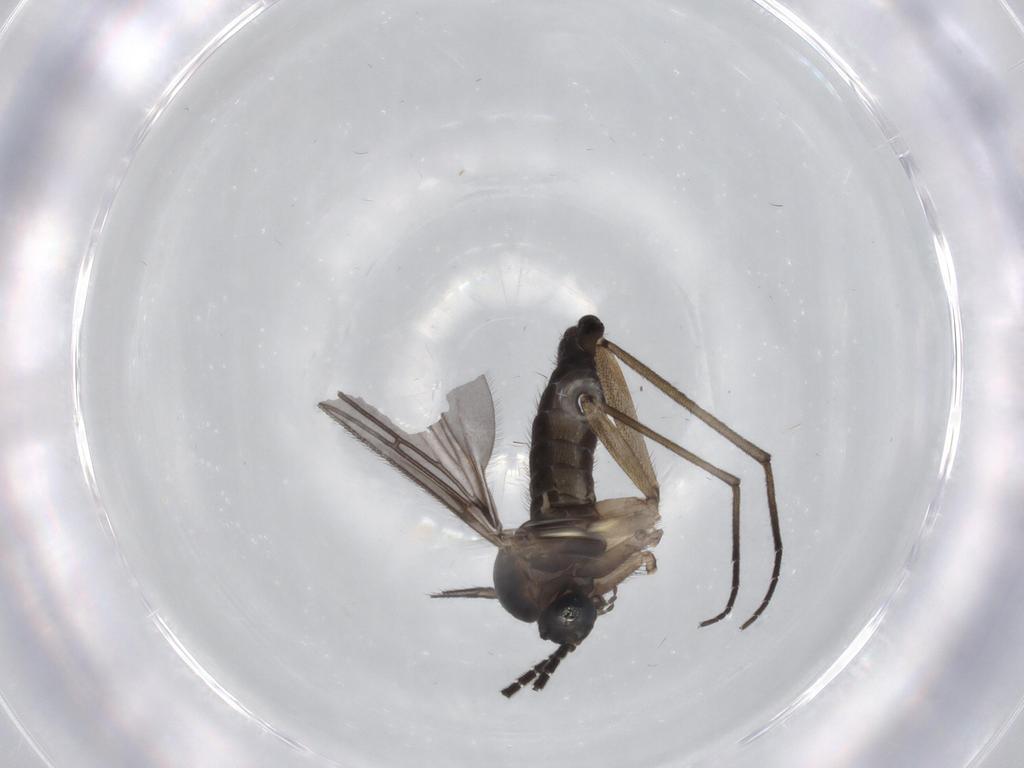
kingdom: Animalia
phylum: Arthropoda
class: Insecta
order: Diptera
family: Sciaridae
